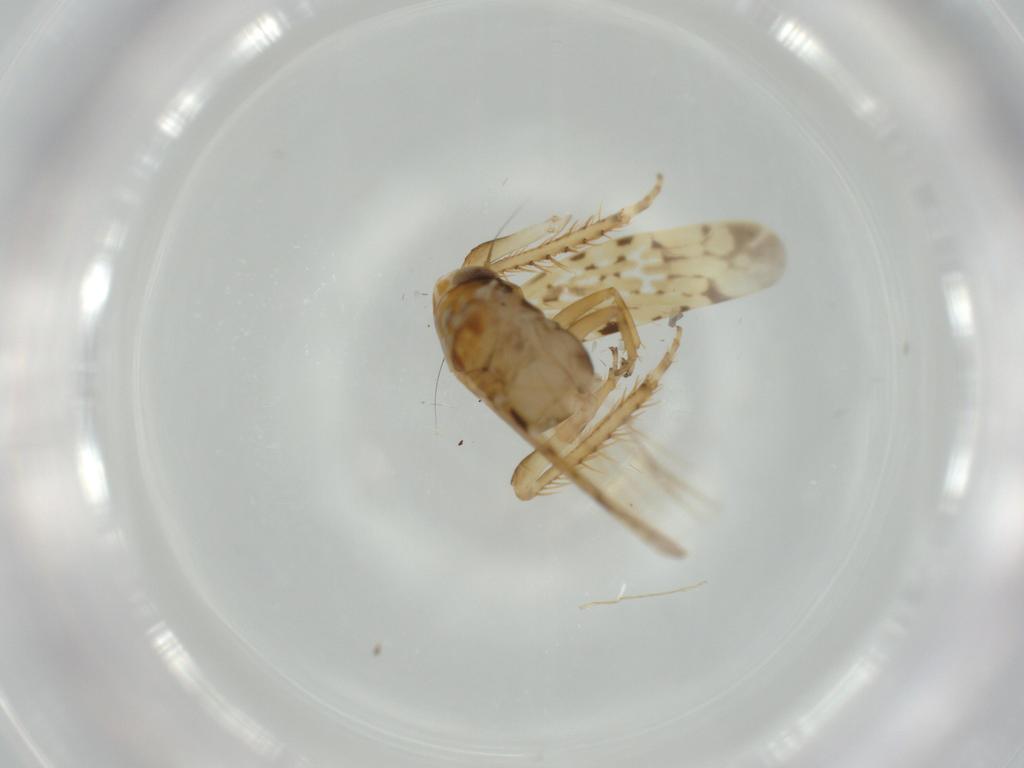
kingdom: Animalia
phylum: Arthropoda
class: Insecta
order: Hemiptera
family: Cicadellidae
